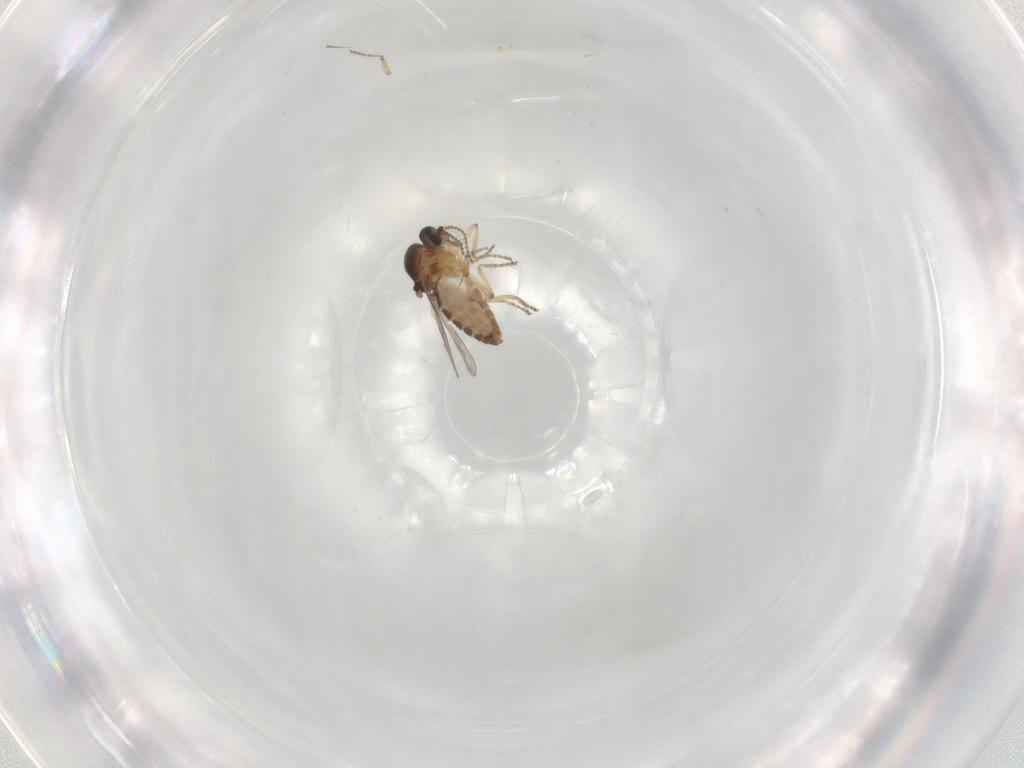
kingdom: Animalia
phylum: Arthropoda
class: Insecta
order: Diptera
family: Ceratopogonidae
